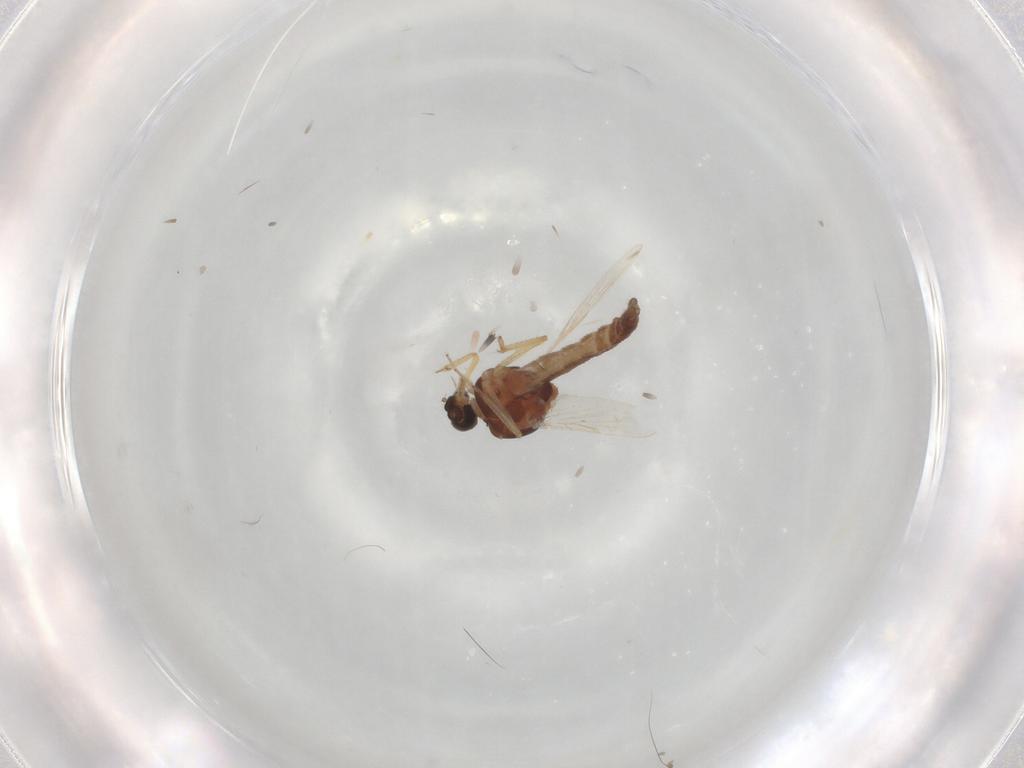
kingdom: Animalia
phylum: Arthropoda
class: Insecta
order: Diptera
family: Ceratopogonidae
